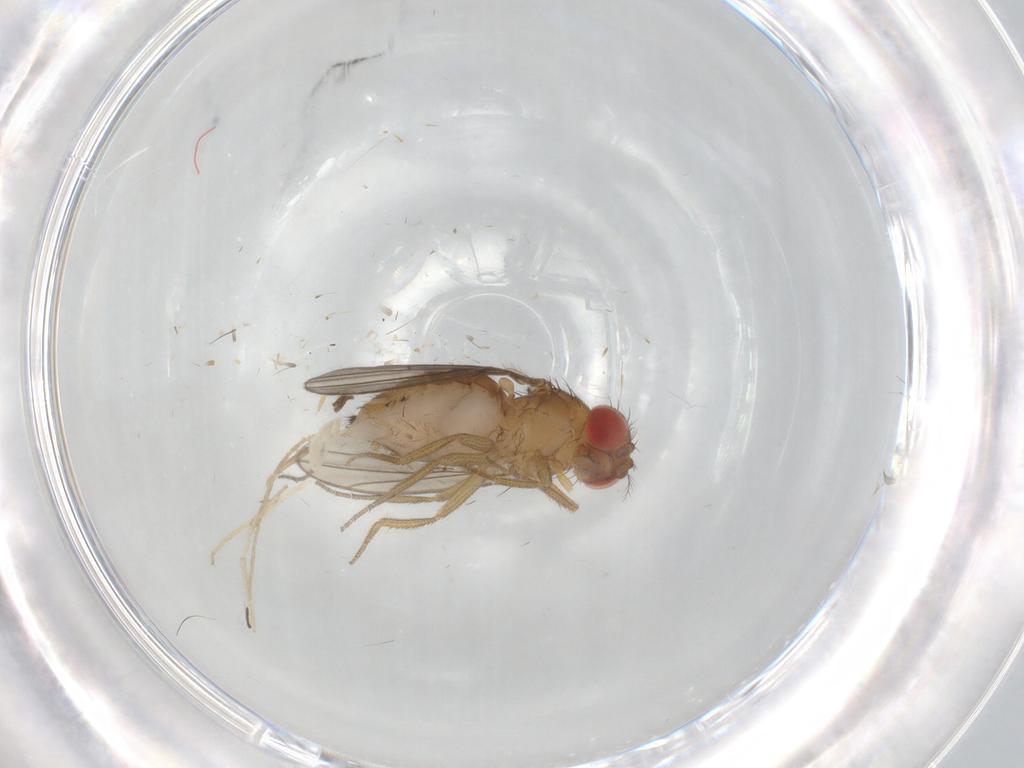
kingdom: Animalia
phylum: Arthropoda
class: Insecta
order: Diptera
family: Drosophilidae
